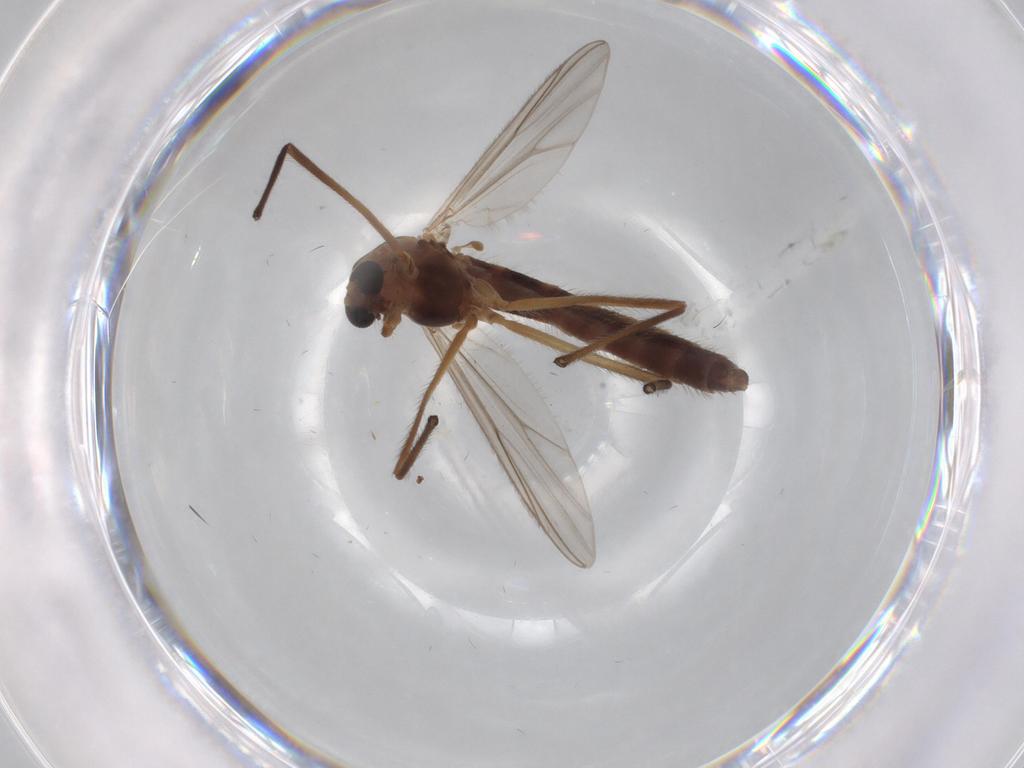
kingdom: Animalia
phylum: Arthropoda
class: Insecta
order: Diptera
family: Chironomidae
